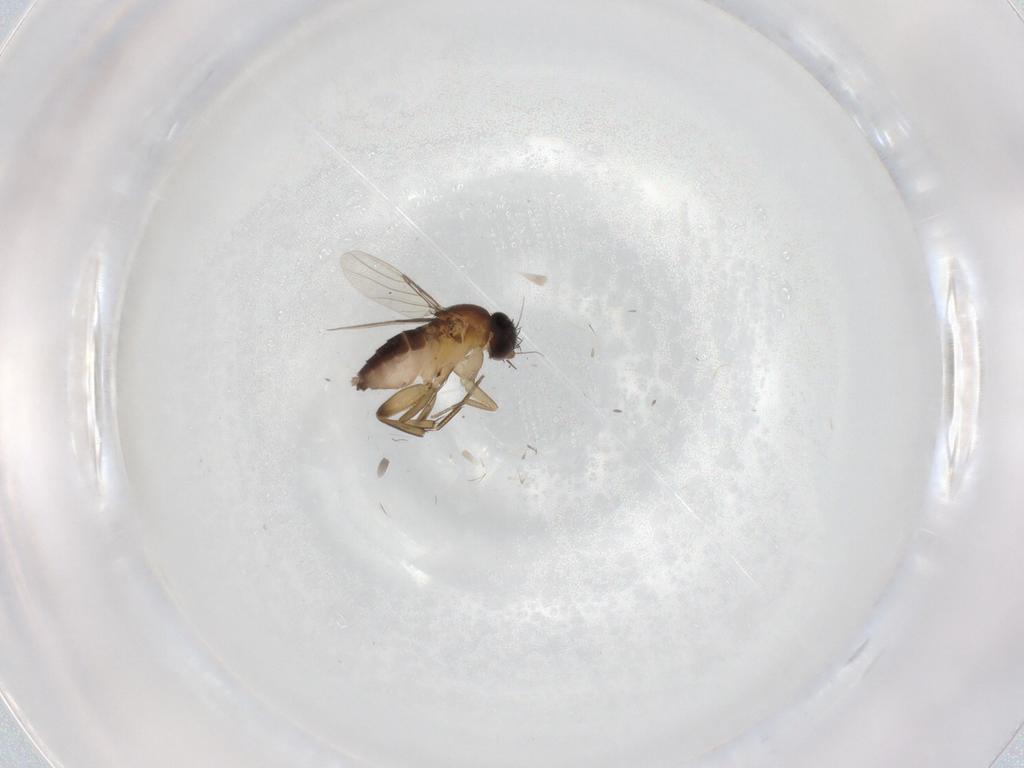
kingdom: Animalia
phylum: Arthropoda
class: Insecta
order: Diptera
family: Phoridae
